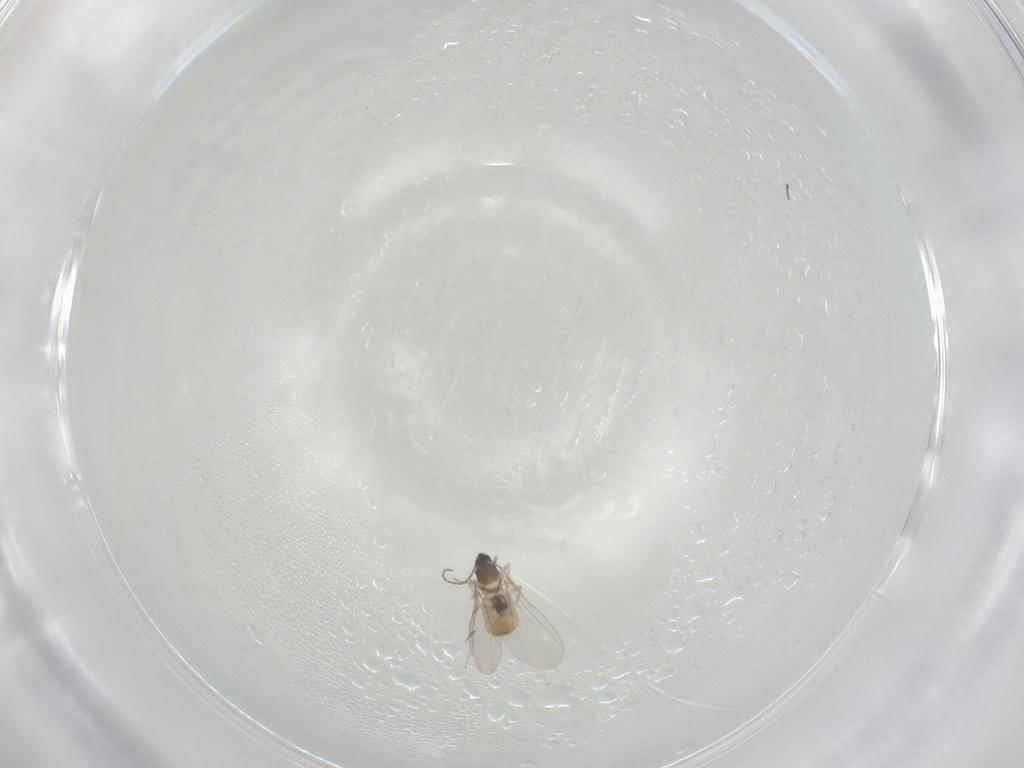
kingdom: Animalia
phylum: Arthropoda
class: Insecta
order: Diptera
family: Cecidomyiidae
